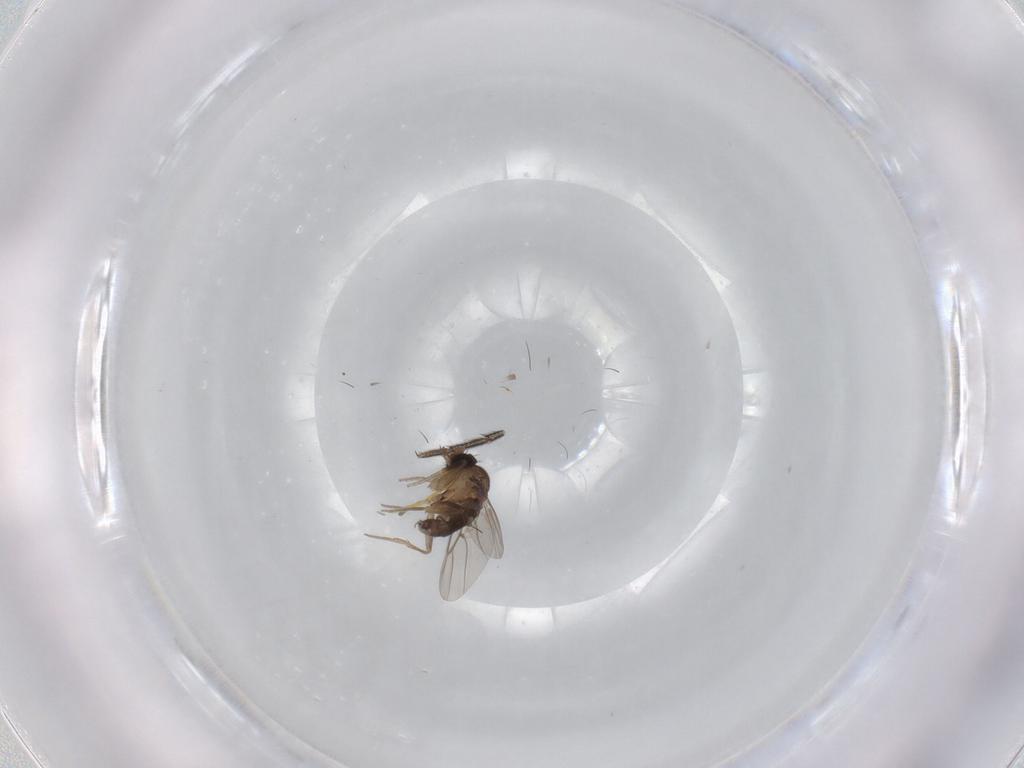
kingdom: Animalia
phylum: Arthropoda
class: Insecta
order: Diptera
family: Phoridae
